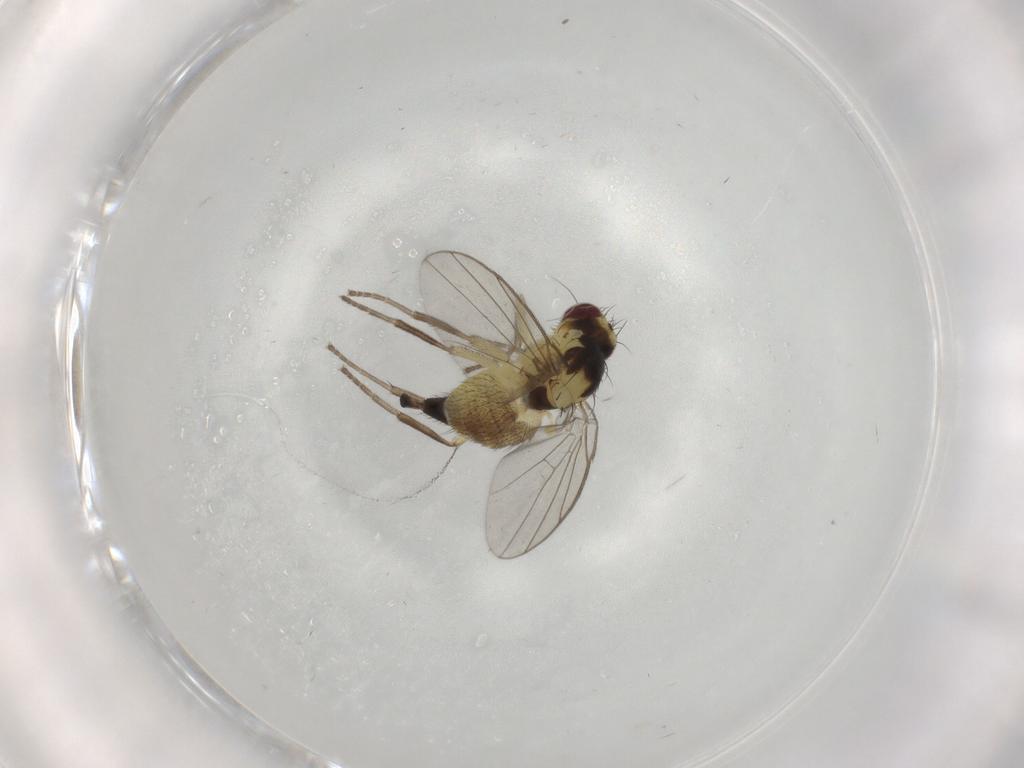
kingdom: Animalia
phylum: Arthropoda
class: Insecta
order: Diptera
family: Agromyzidae
